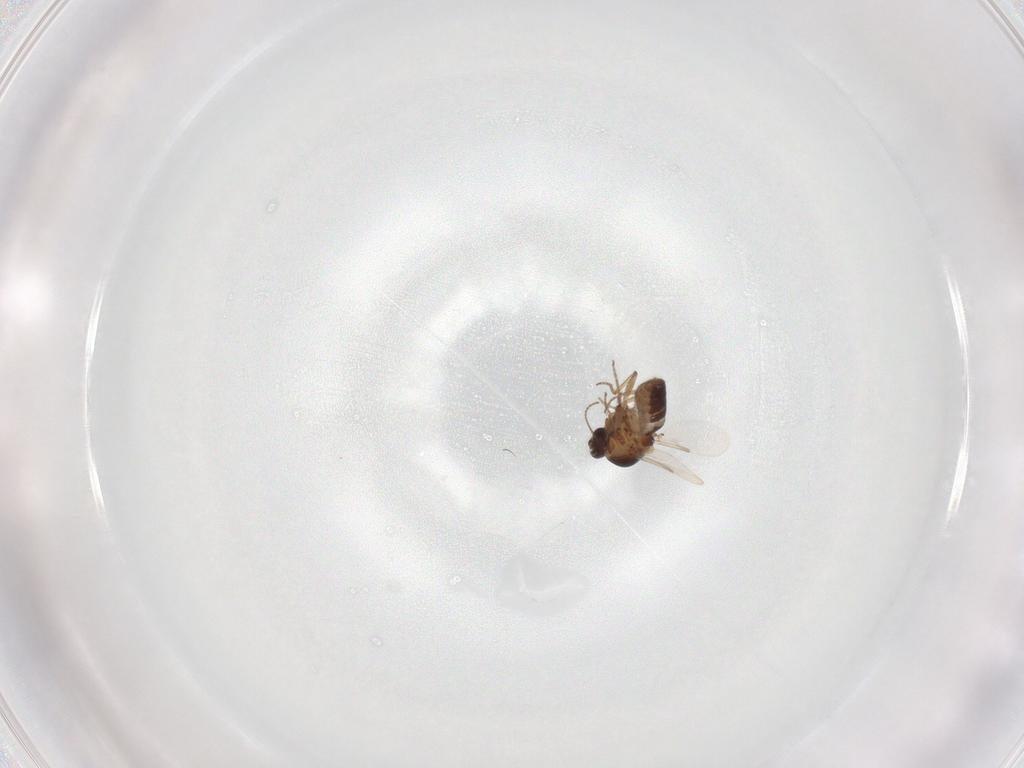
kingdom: Animalia
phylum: Arthropoda
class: Insecta
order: Diptera
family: Ceratopogonidae
